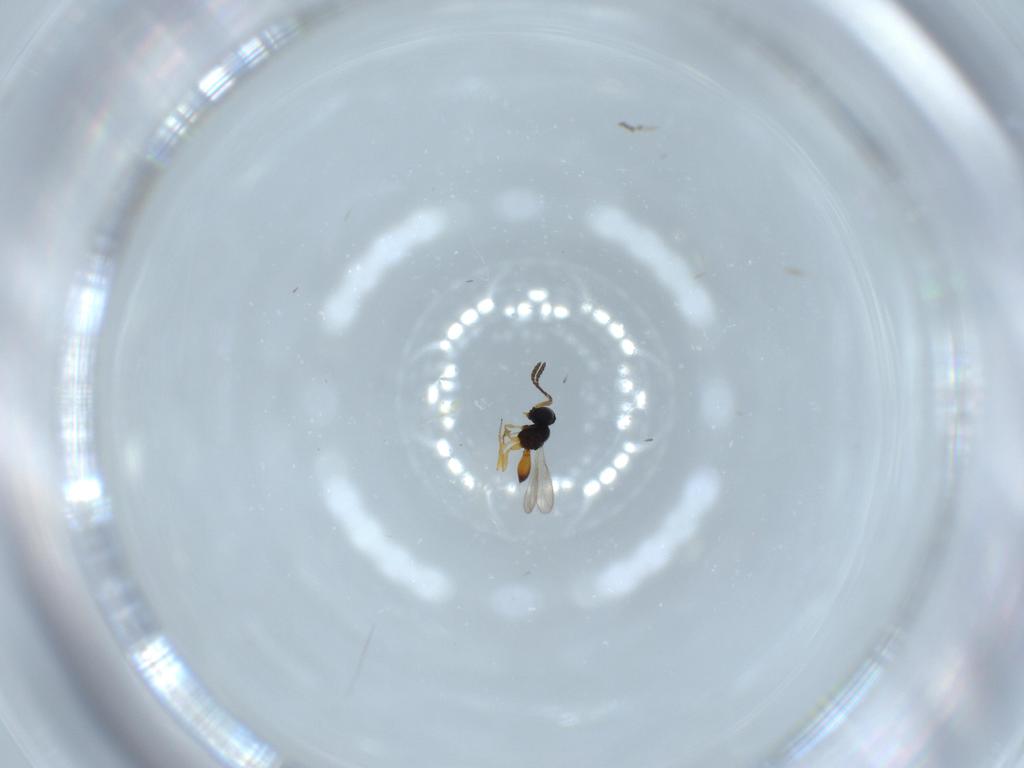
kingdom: Animalia
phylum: Arthropoda
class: Insecta
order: Hymenoptera
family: Scelionidae
